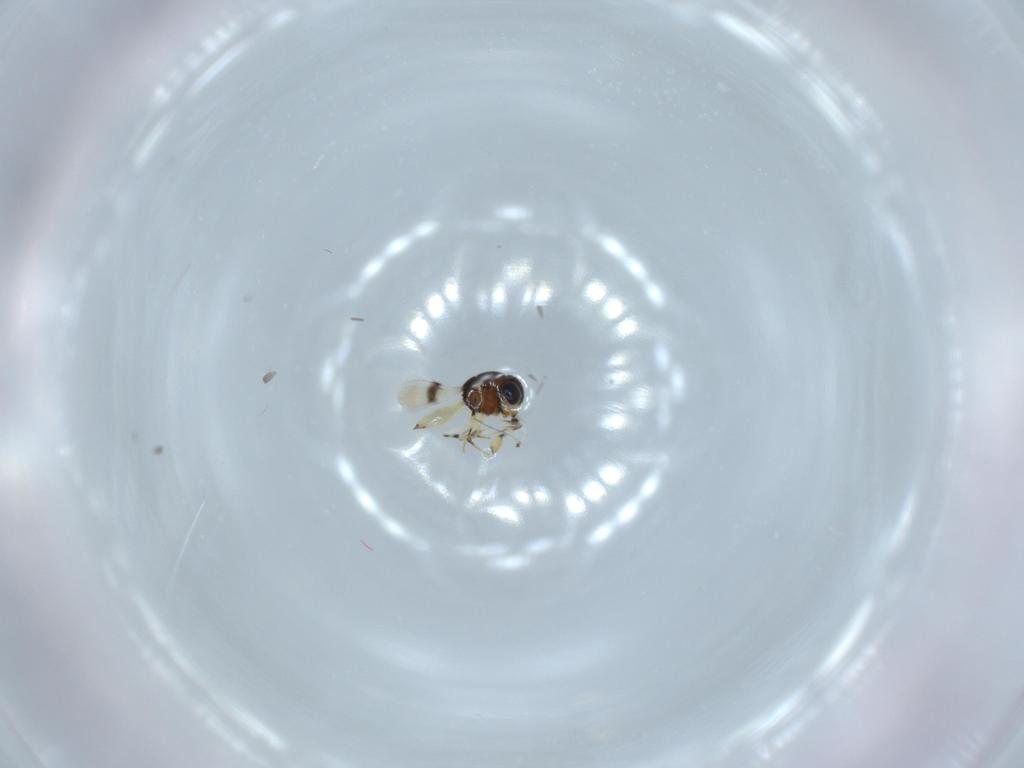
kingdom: Animalia
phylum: Arthropoda
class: Insecta
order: Hymenoptera
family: Scelionidae
